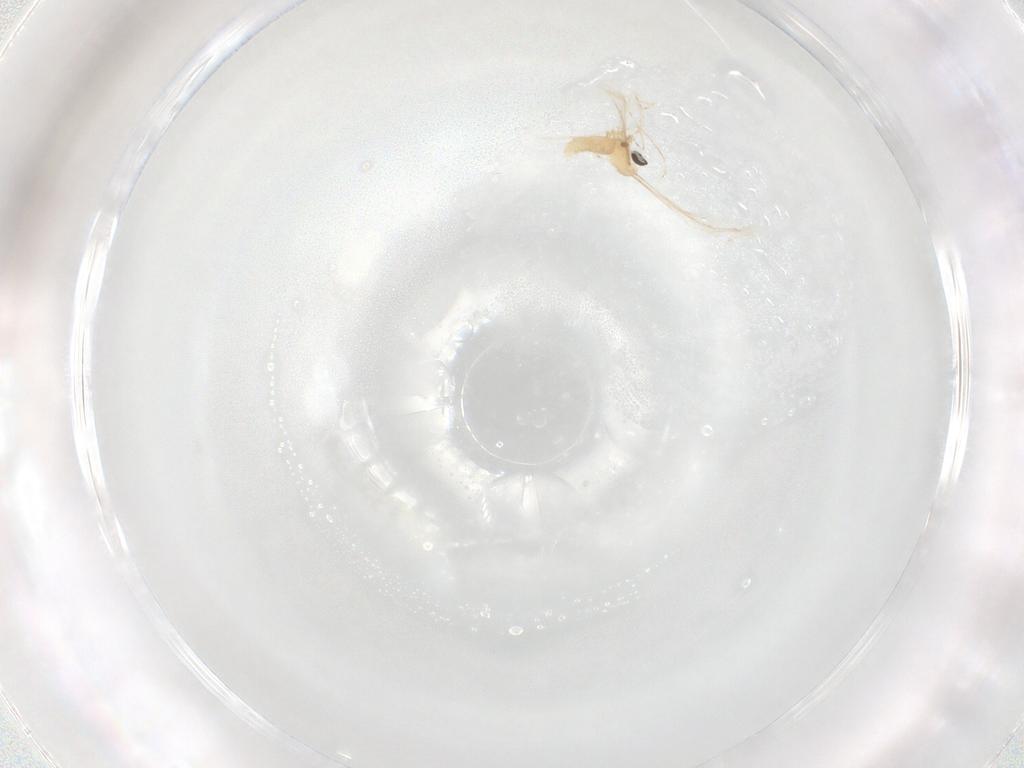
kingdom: Animalia
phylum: Arthropoda
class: Insecta
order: Diptera
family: Cecidomyiidae
